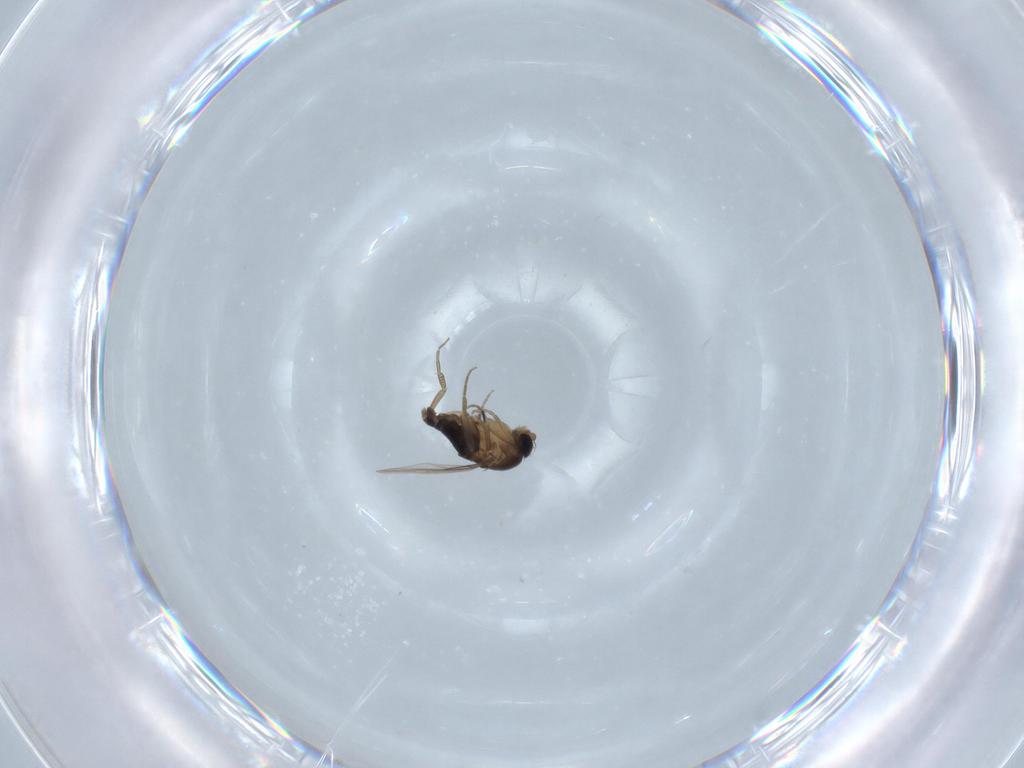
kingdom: Animalia
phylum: Arthropoda
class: Insecta
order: Diptera
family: Phoridae
